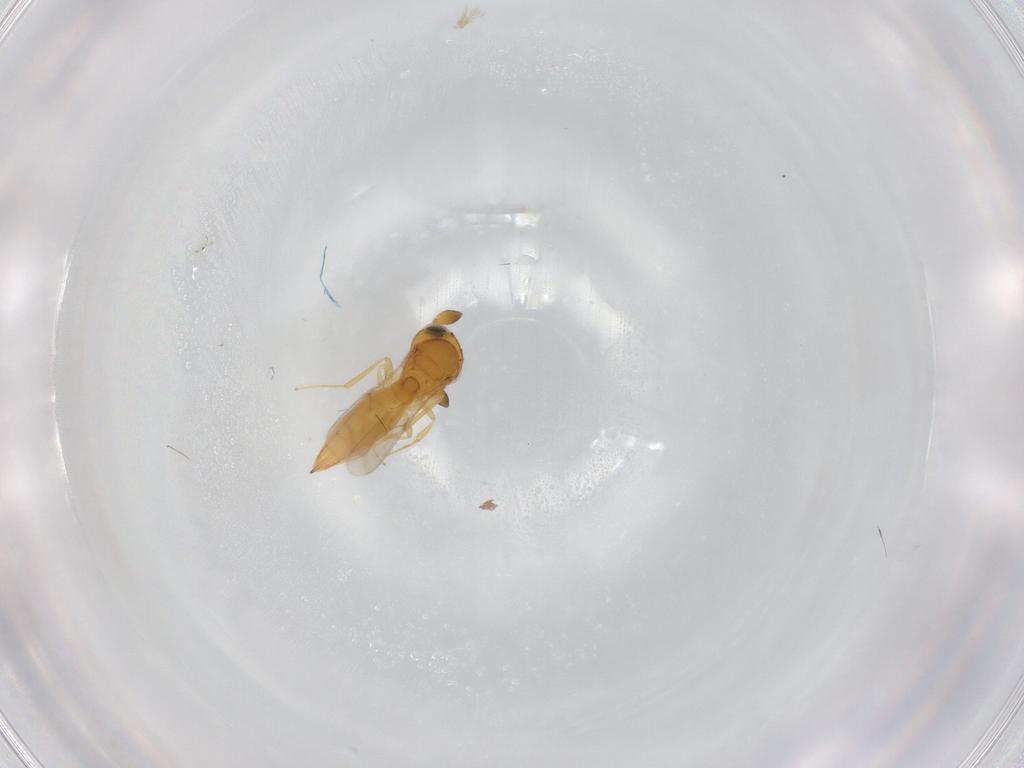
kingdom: Animalia
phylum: Arthropoda
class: Insecta
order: Hymenoptera
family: Scelionidae
